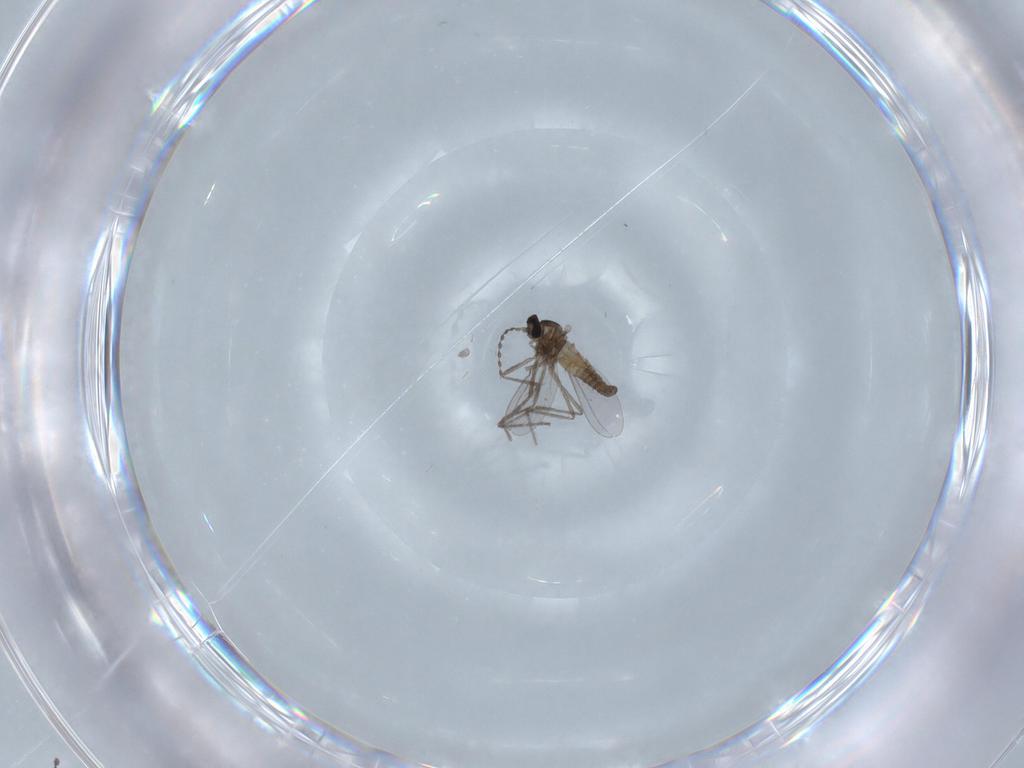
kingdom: Animalia
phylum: Arthropoda
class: Insecta
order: Diptera
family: Cecidomyiidae
